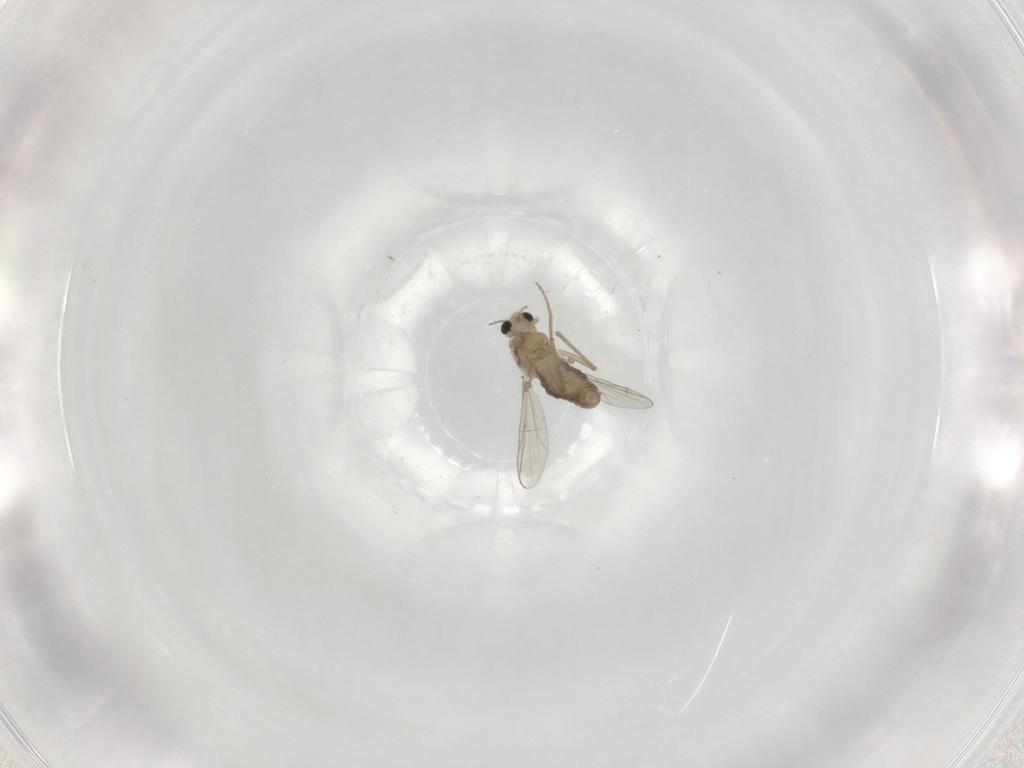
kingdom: Animalia
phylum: Arthropoda
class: Insecta
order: Diptera
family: Chironomidae
